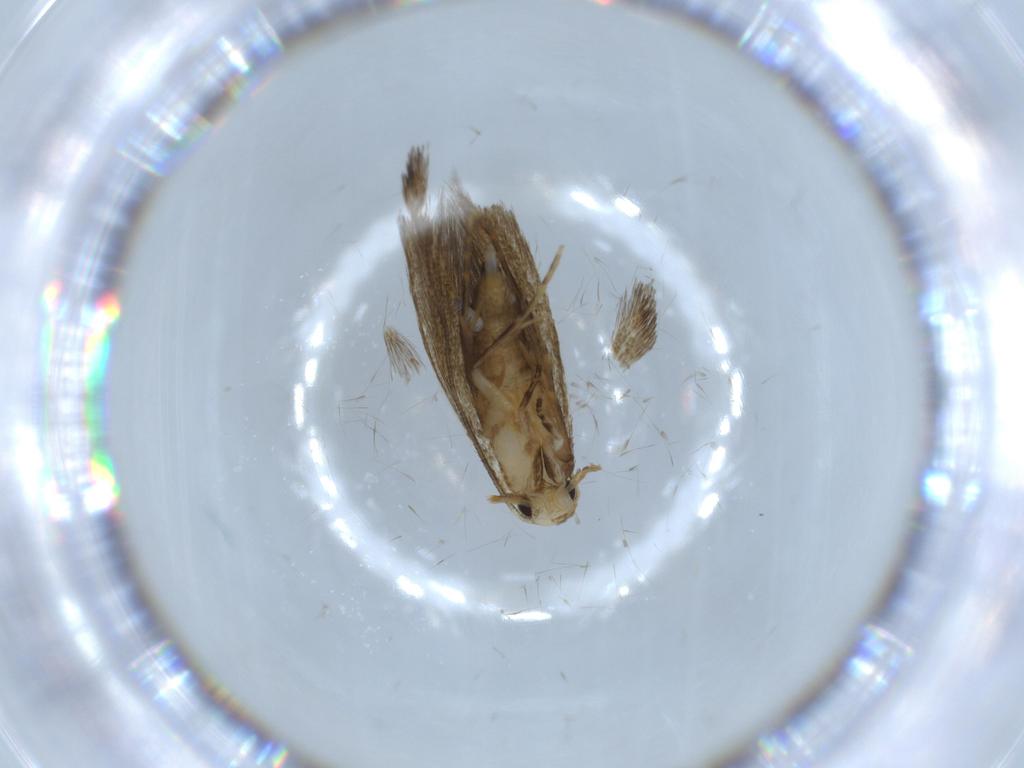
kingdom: Animalia
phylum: Arthropoda
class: Insecta
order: Lepidoptera
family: Tineidae
